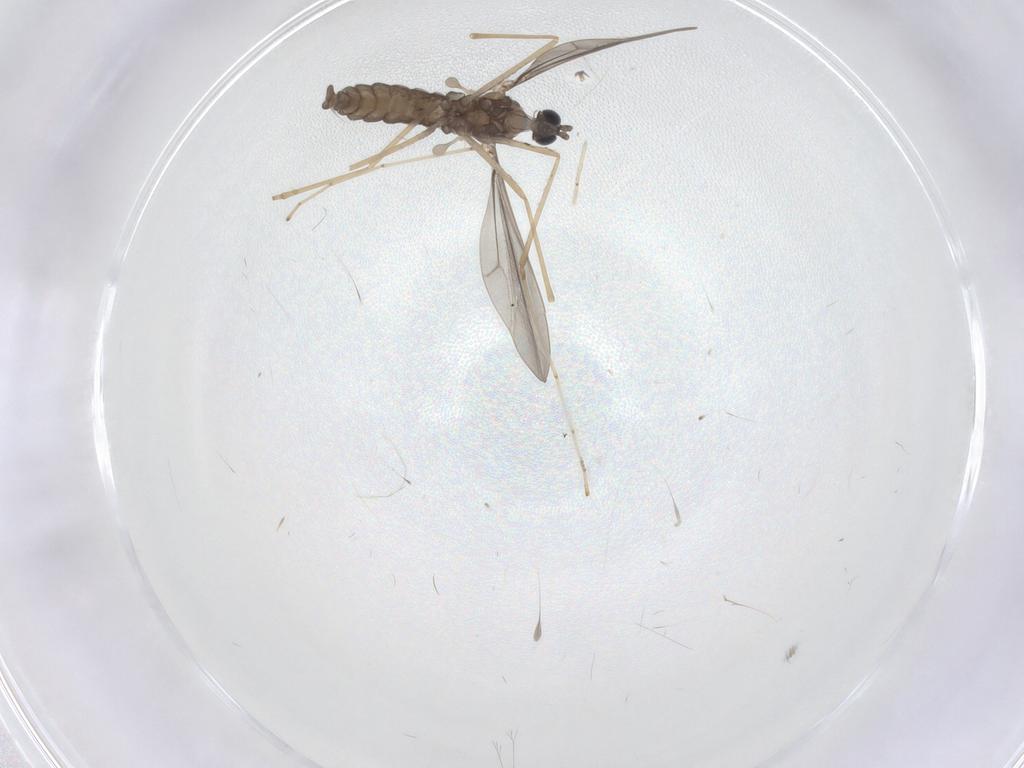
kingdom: Animalia
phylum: Arthropoda
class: Insecta
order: Diptera
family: Cecidomyiidae
